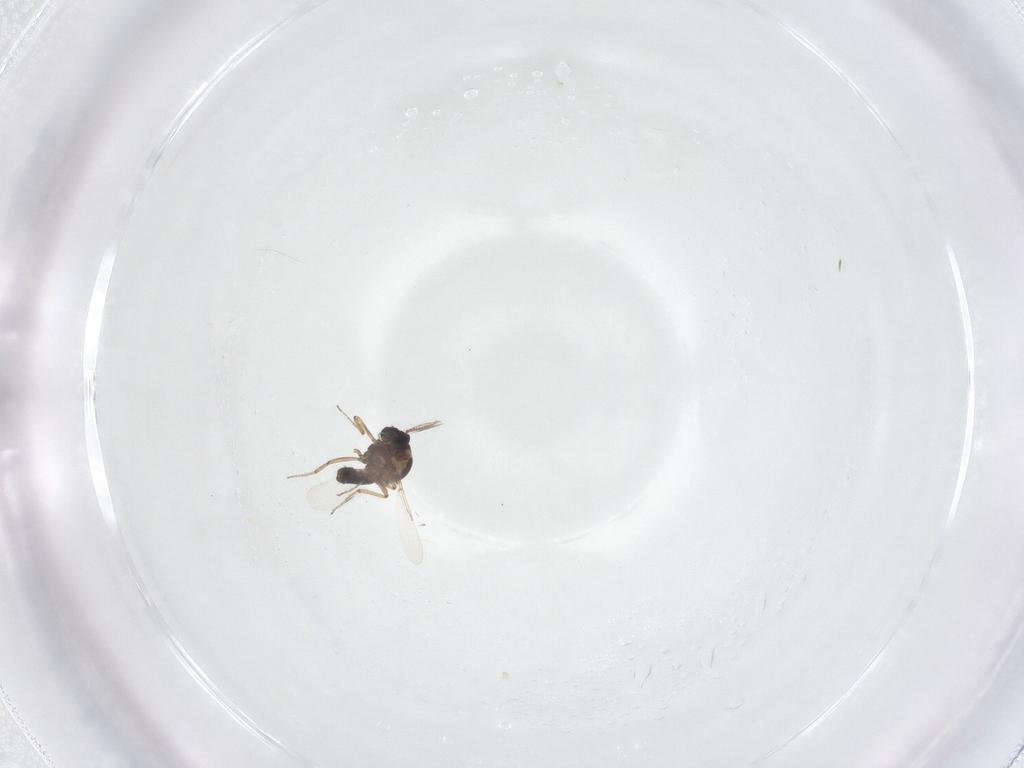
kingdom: Animalia
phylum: Arthropoda
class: Insecta
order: Diptera
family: Ceratopogonidae
